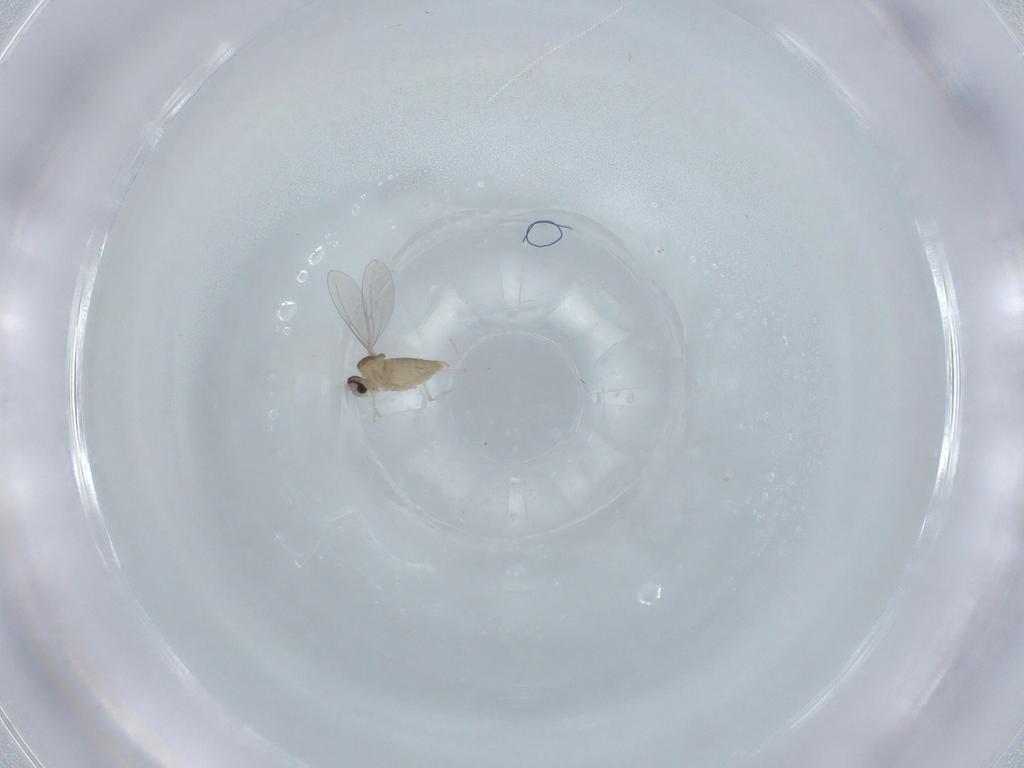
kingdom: Animalia
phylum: Arthropoda
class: Insecta
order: Diptera
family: Cecidomyiidae
